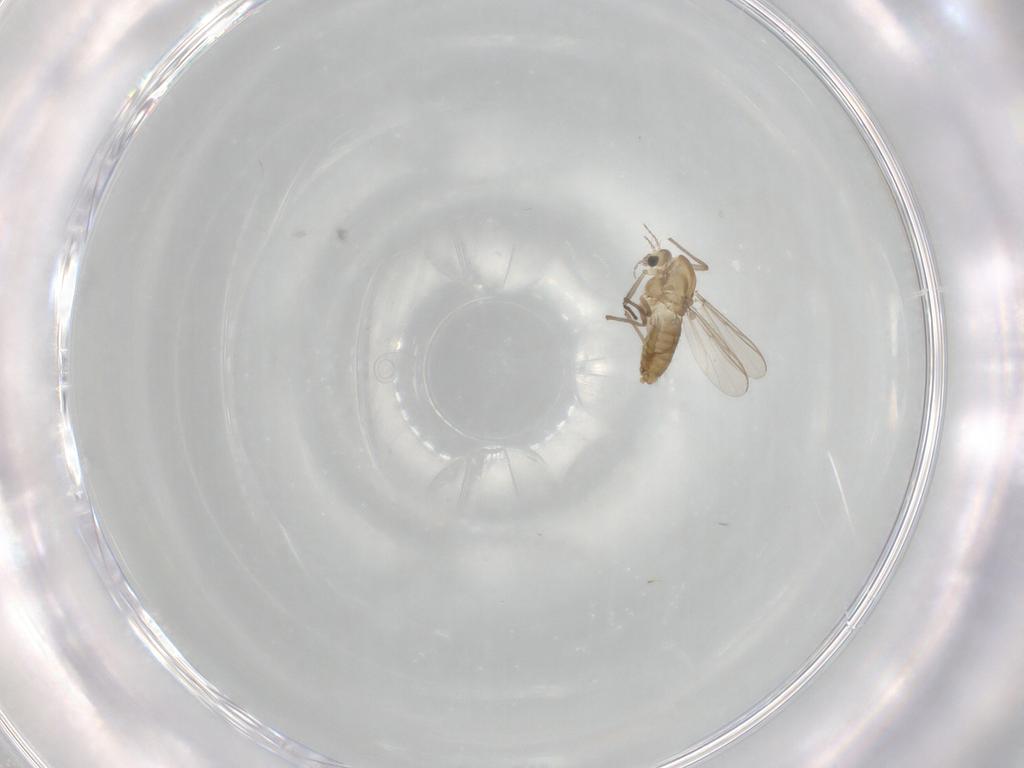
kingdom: Animalia
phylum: Arthropoda
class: Insecta
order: Diptera
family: Chironomidae
